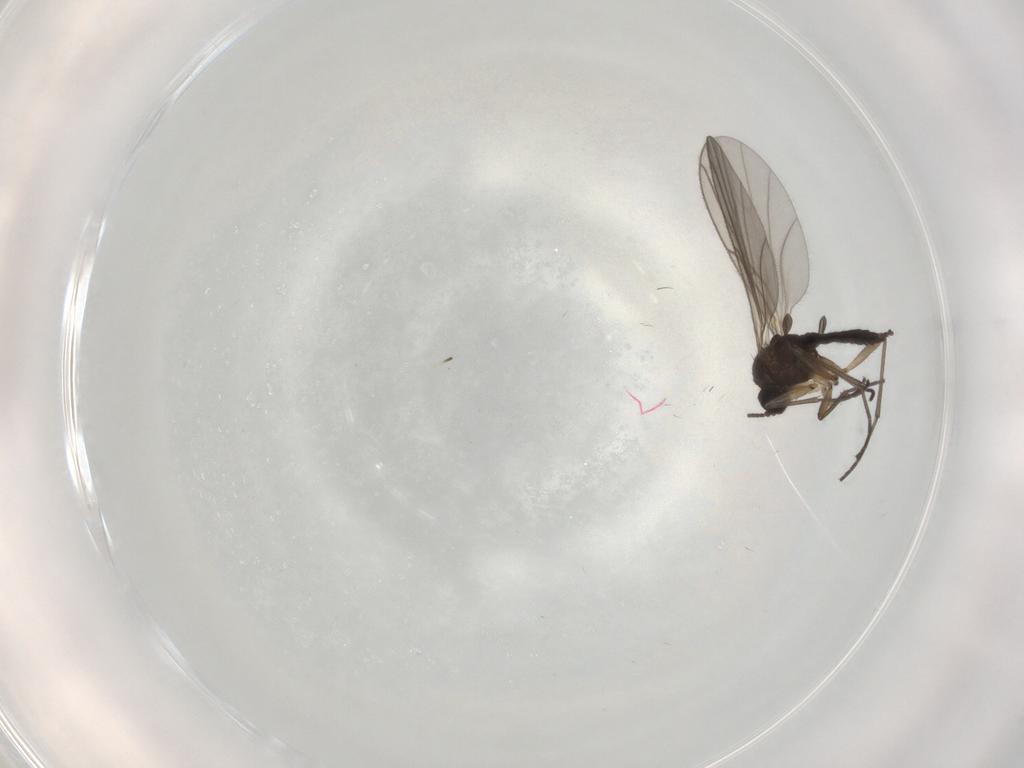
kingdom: Animalia
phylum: Arthropoda
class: Insecta
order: Diptera
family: Sciaridae
